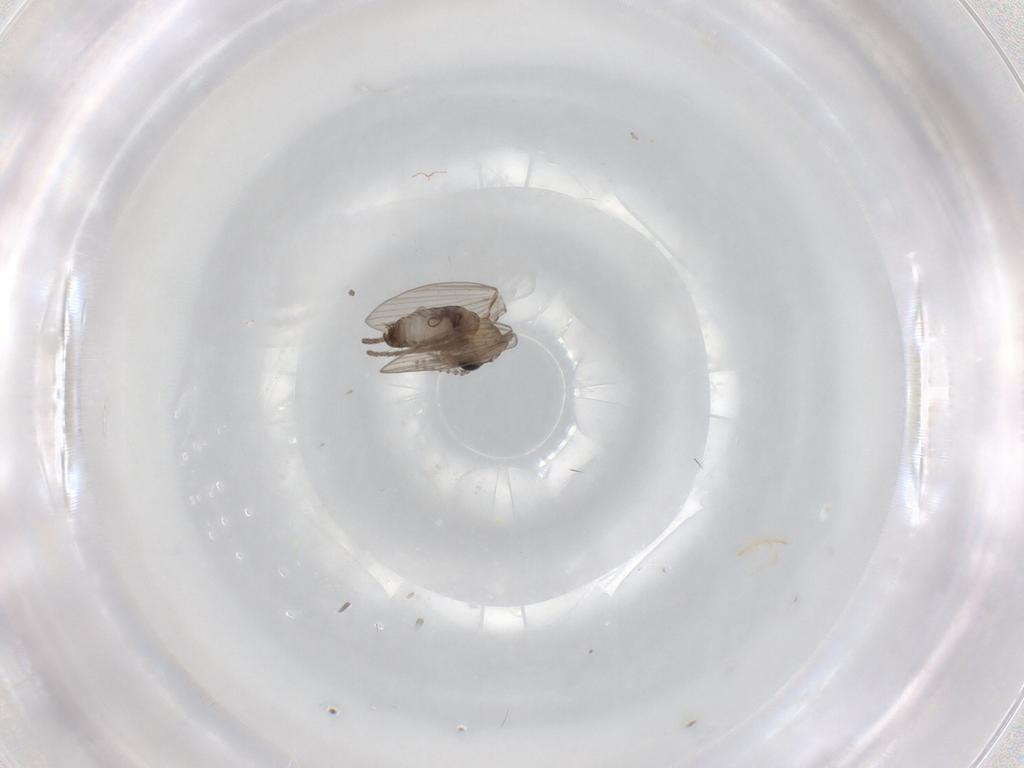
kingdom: Animalia
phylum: Arthropoda
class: Insecta
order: Diptera
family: Psychodidae
